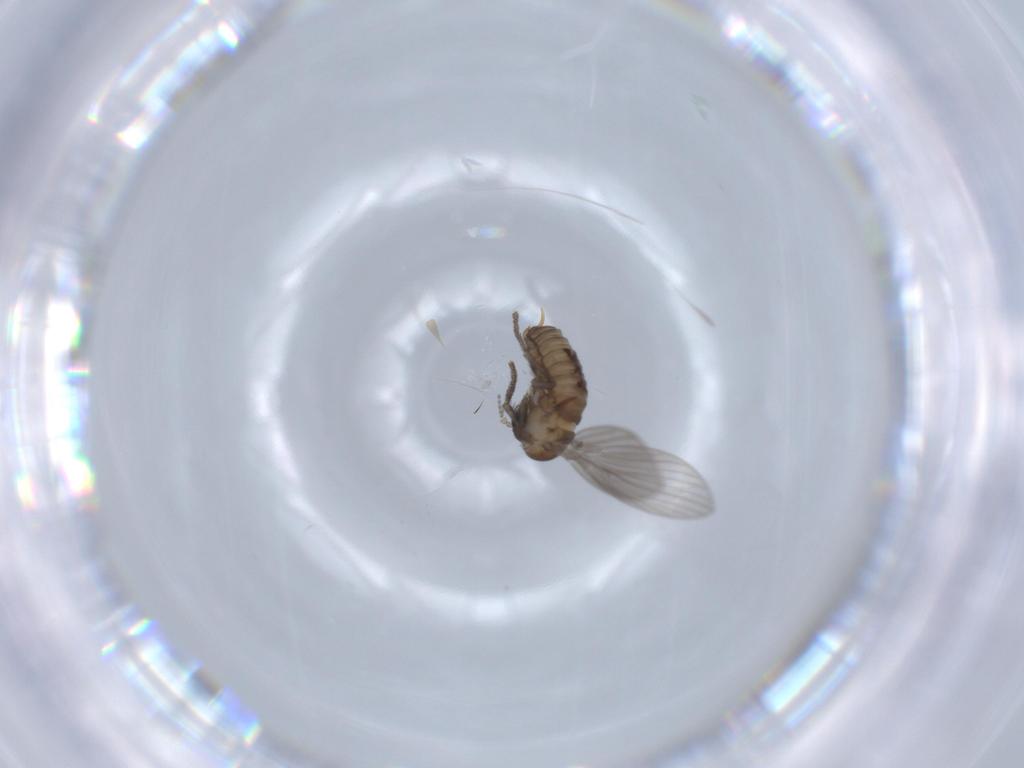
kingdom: Animalia
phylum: Arthropoda
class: Insecta
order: Diptera
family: Psychodidae
